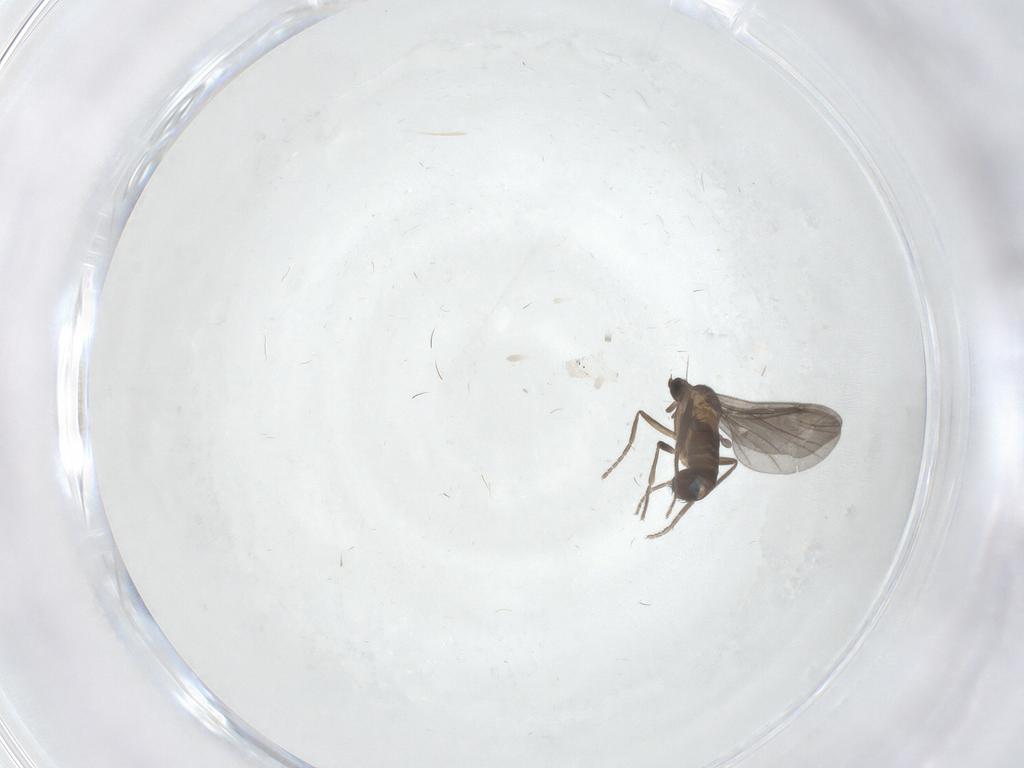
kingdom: Animalia
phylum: Arthropoda
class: Insecta
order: Diptera
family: Phoridae
